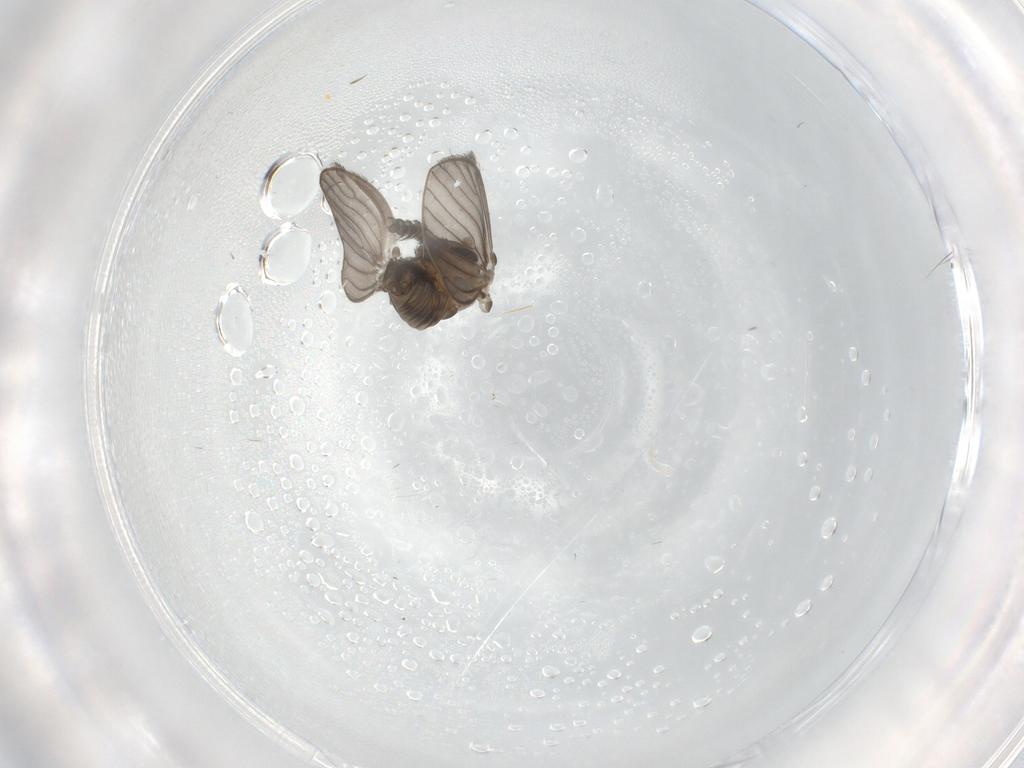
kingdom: Animalia
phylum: Arthropoda
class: Insecta
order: Diptera
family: Psychodidae
